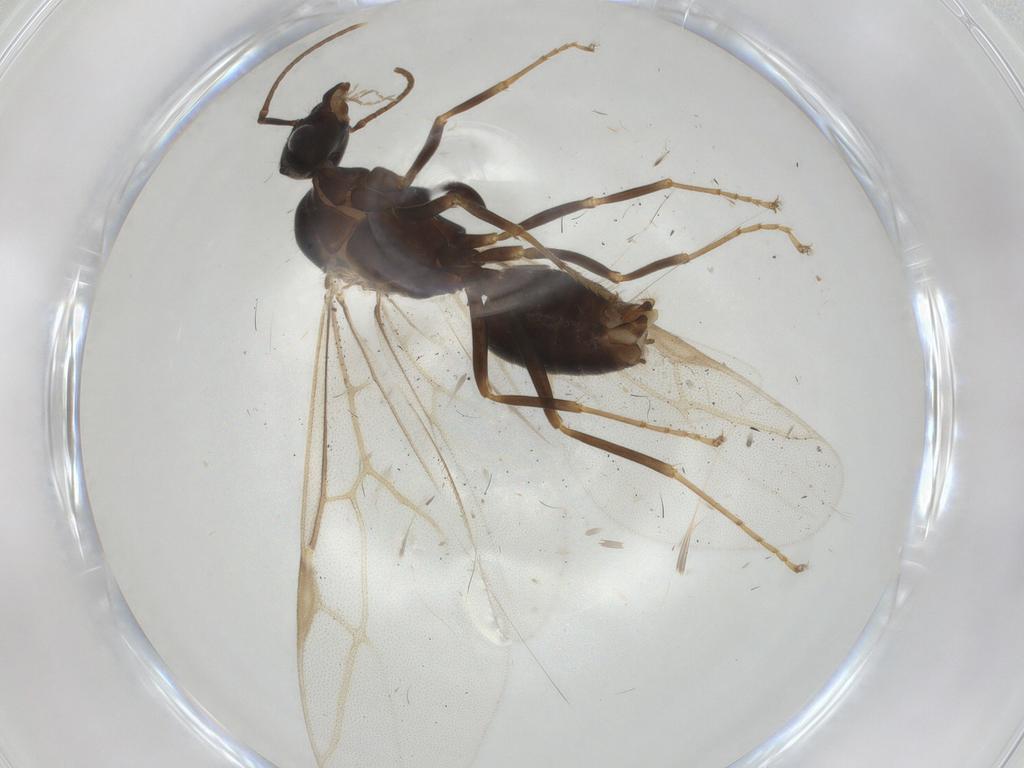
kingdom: Animalia
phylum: Arthropoda
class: Insecta
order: Hymenoptera
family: Formicidae
